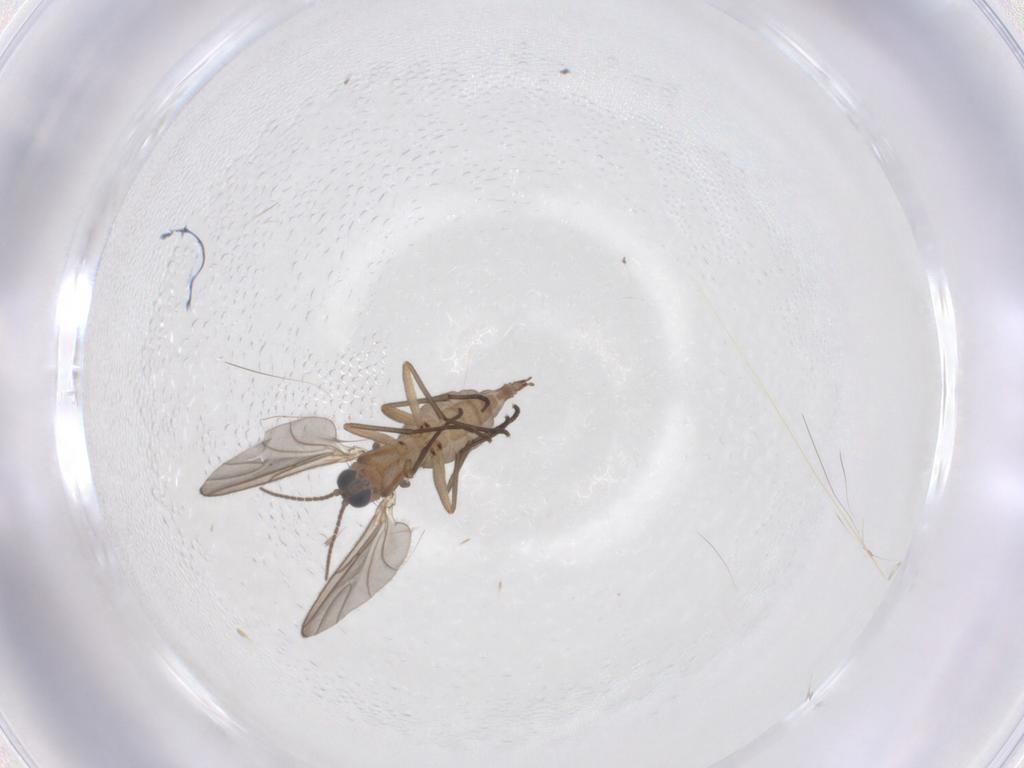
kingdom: Animalia
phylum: Arthropoda
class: Insecta
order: Diptera
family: Sciaridae
